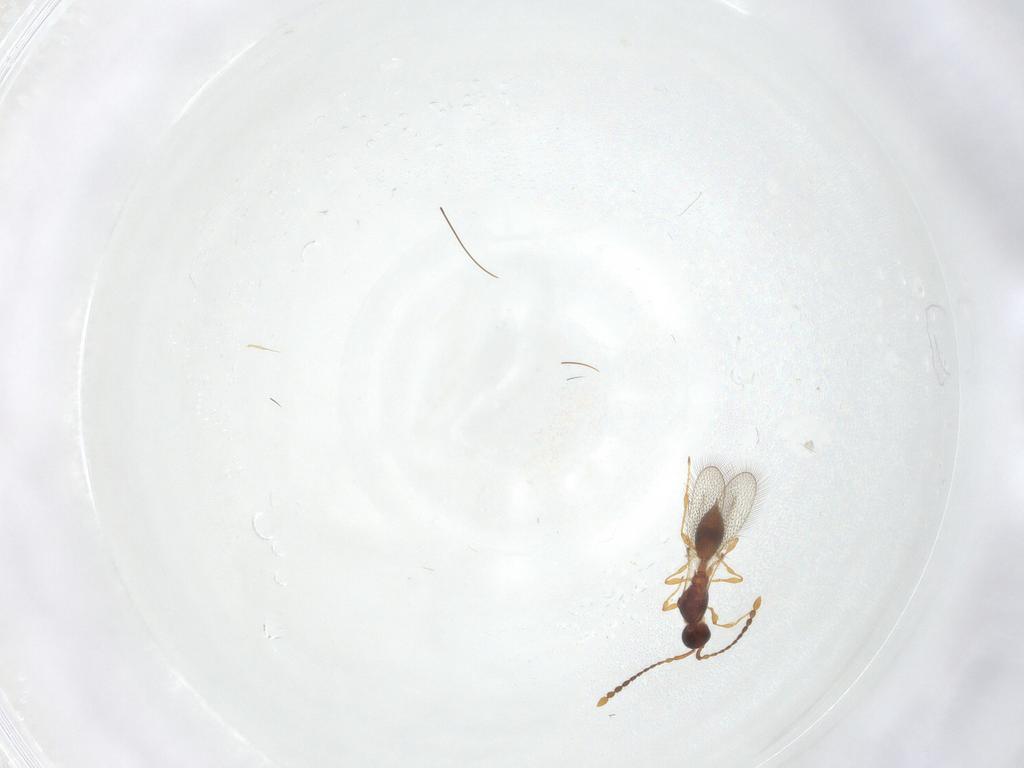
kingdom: Animalia
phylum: Arthropoda
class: Insecta
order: Hymenoptera
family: Diapriidae
